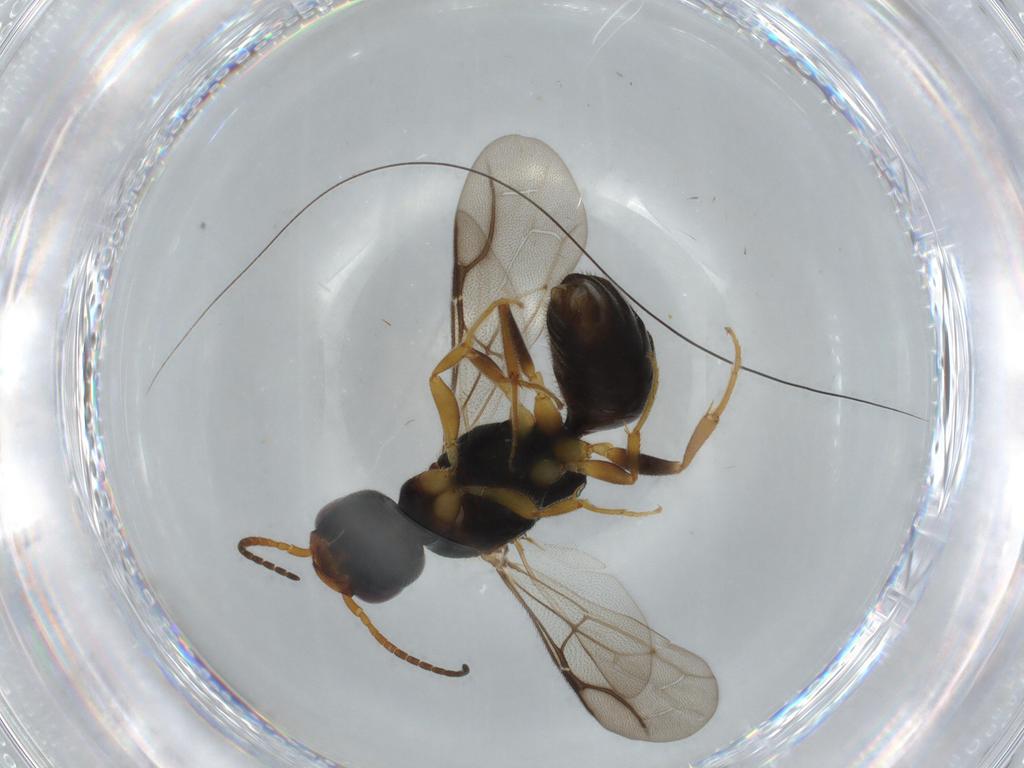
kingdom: Animalia
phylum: Arthropoda
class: Insecta
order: Hymenoptera
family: Bethylidae
